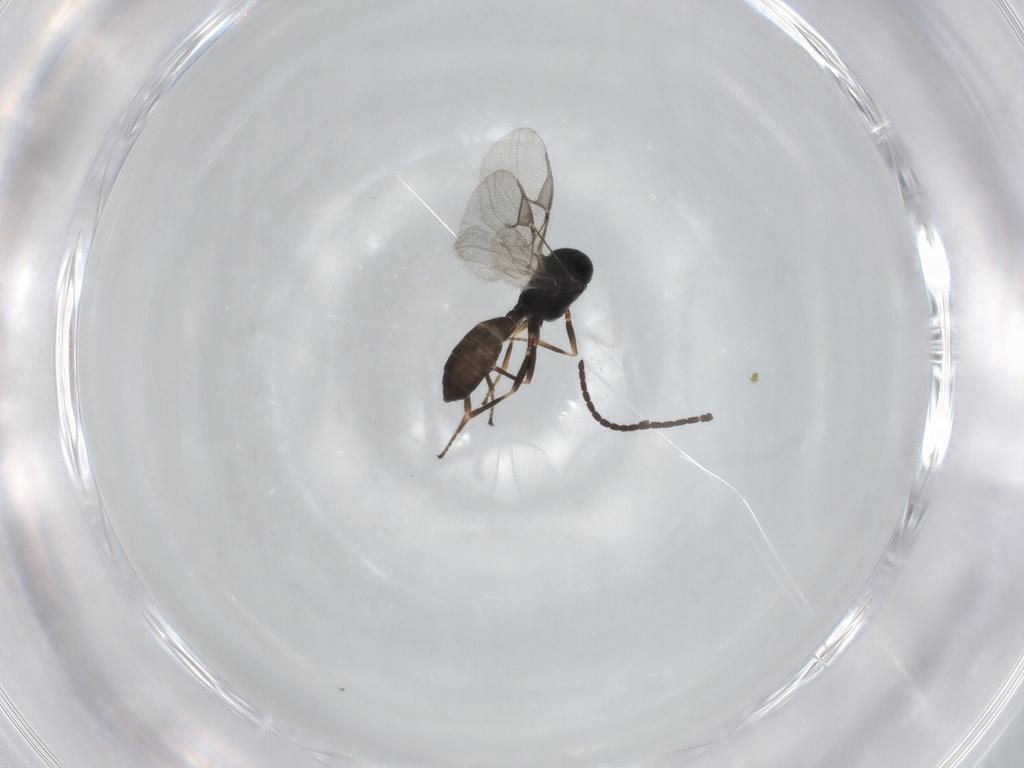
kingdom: Animalia
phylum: Arthropoda
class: Insecta
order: Hymenoptera
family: Braconidae
